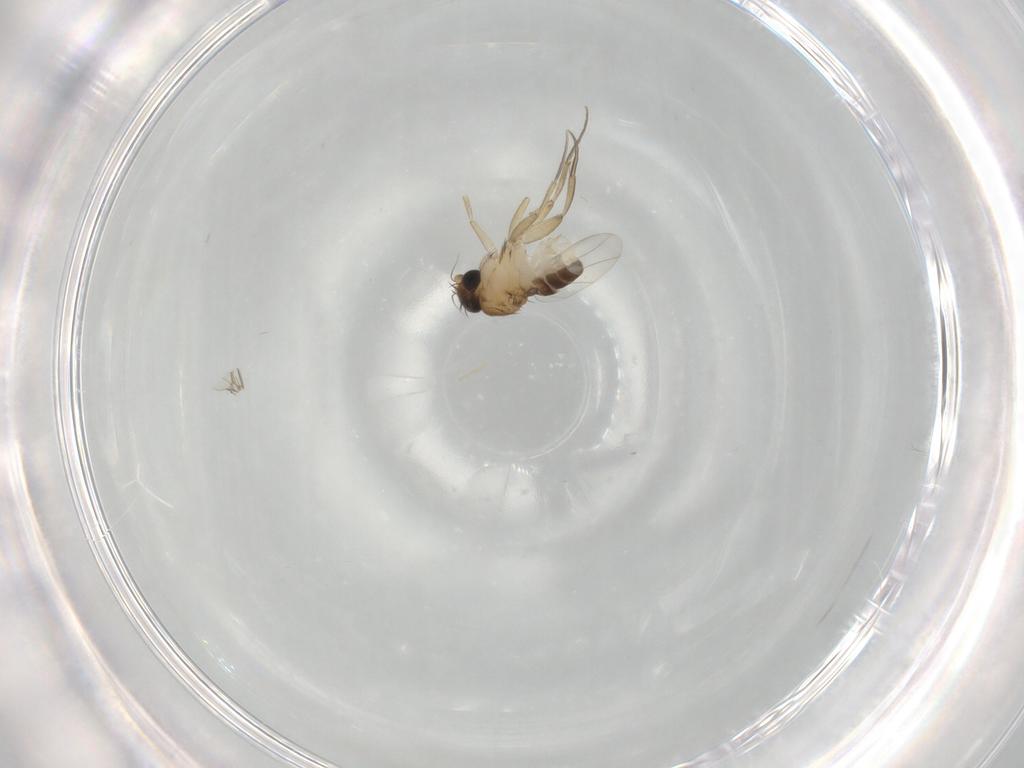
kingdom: Animalia
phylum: Arthropoda
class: Insecta
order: Diptera
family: Phoridae
